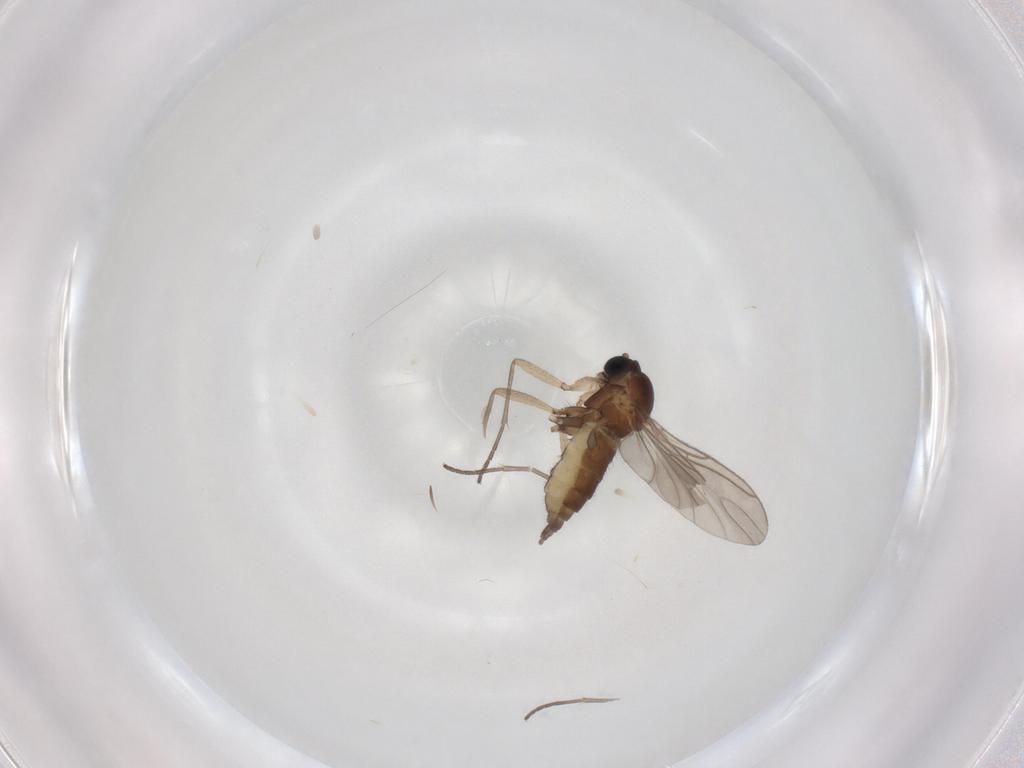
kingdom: Animalia
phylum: Arthropoda
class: Insecta
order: Diptera
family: Sciaridae
